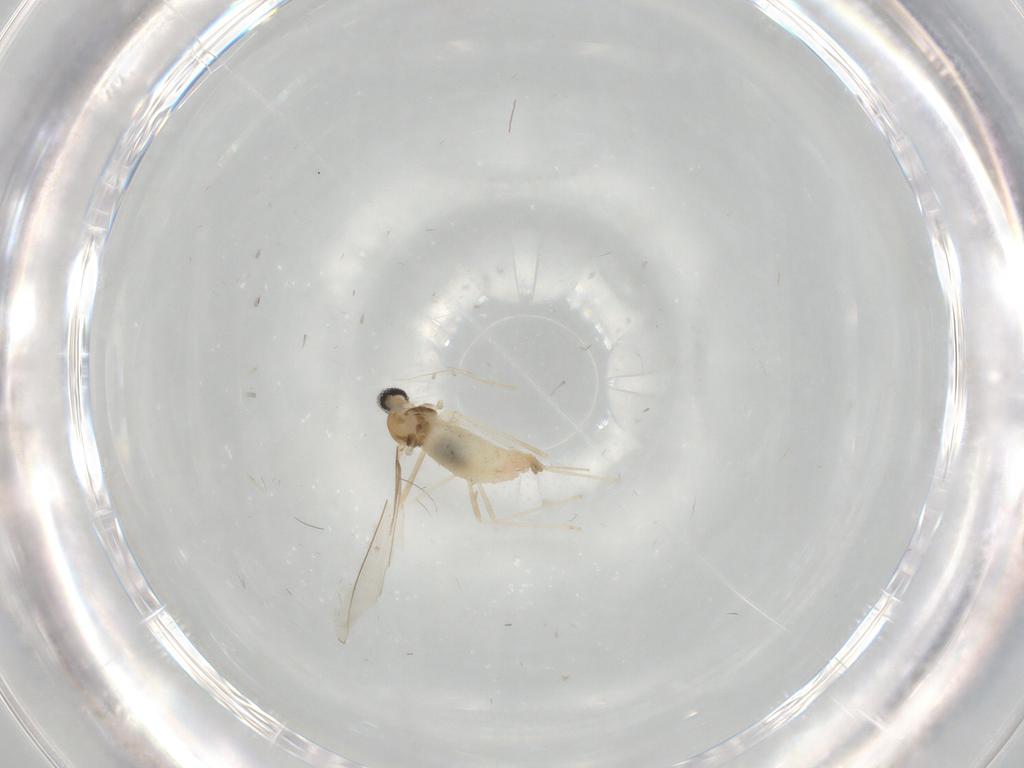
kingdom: Animalia
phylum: Arthropoda
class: Insecta
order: Diptera
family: Cecidomyiidae
